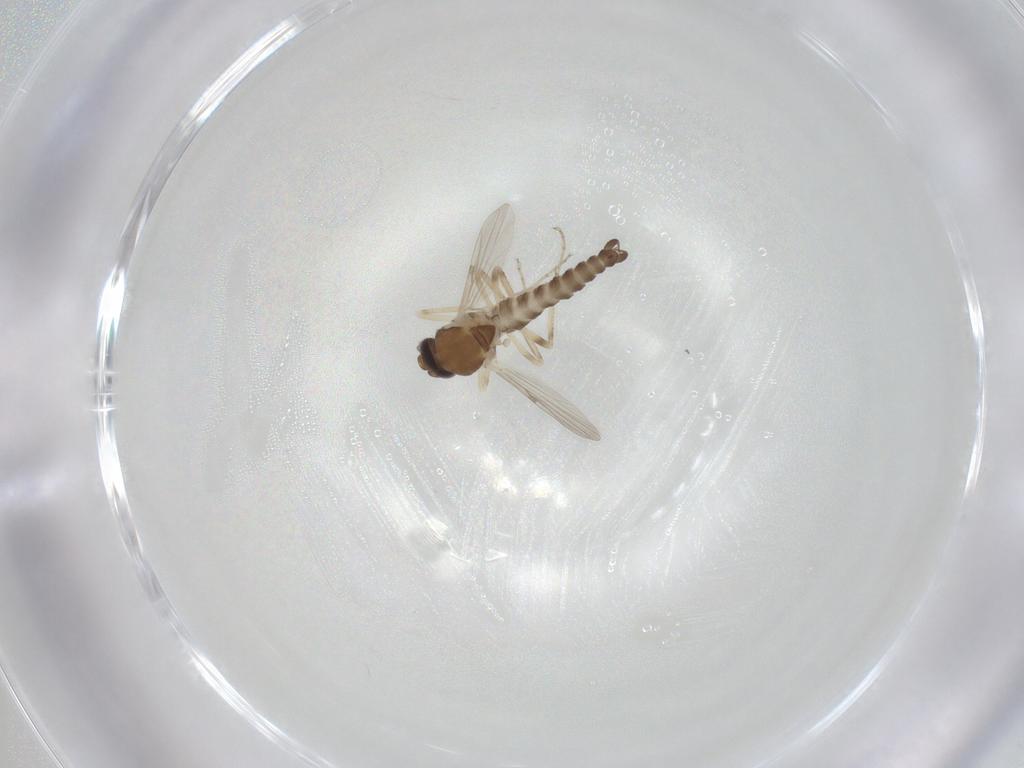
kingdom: Animalia
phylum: Arthropoda
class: Insecta
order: Diptera
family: Ceratopogonidae
